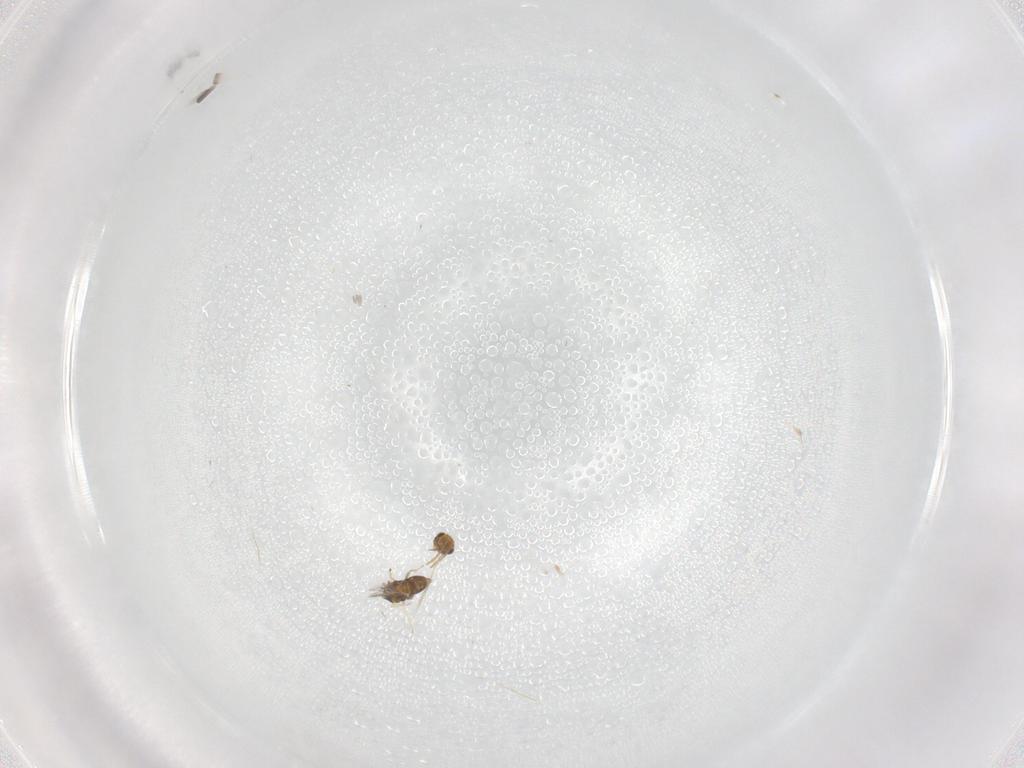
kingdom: Animalia
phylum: Arthropoda
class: Insecta
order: Hymenoptera
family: Aphelinidae
